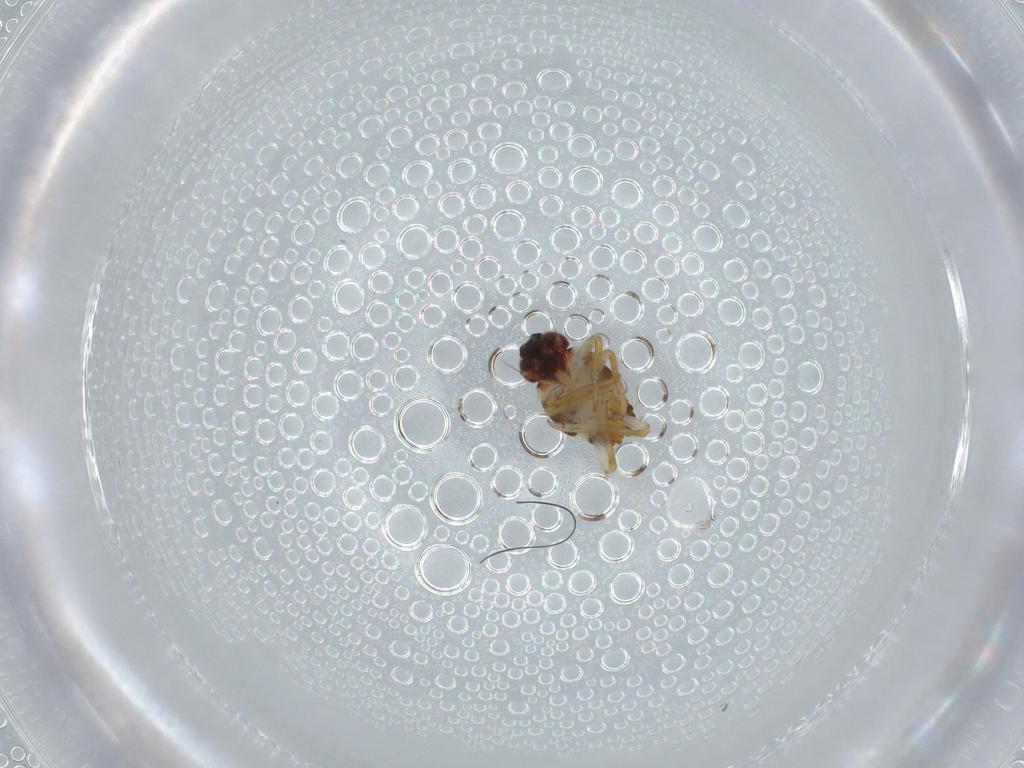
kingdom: Animalia
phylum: Arthropoda
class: Insecta
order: Hemiptera
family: Issidae
